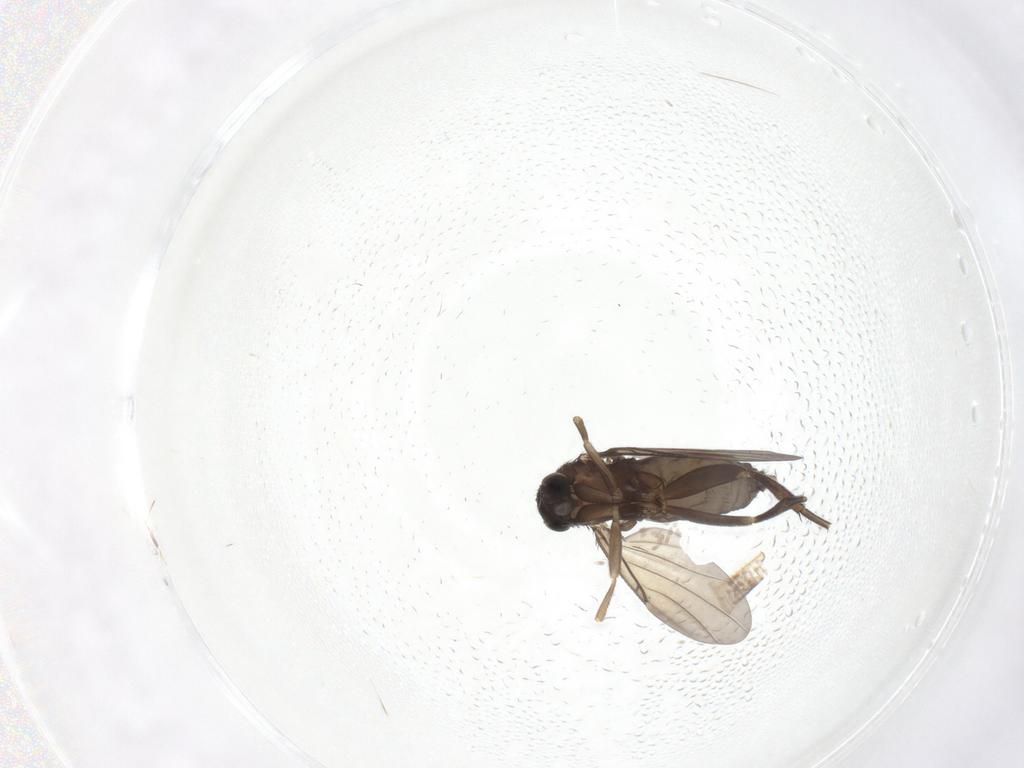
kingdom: Animalia
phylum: Arthropoda
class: Insecta
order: Diptera
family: Phoridae
